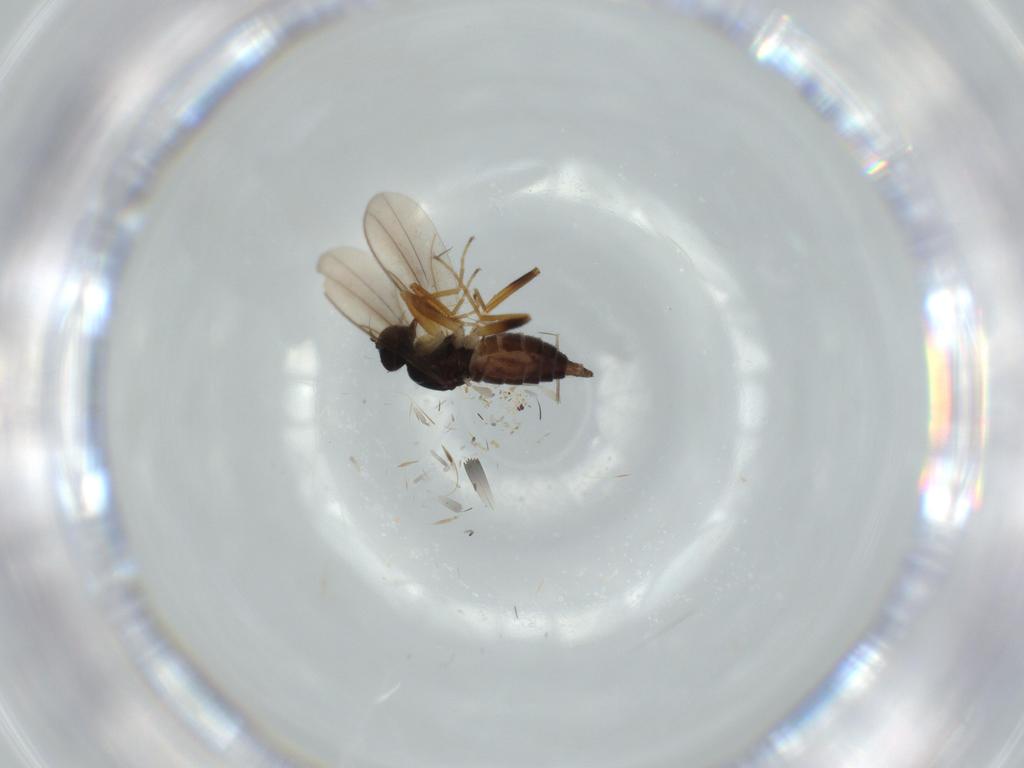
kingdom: Animalia
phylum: Arthropoda
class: Insecta
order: Diptera
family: Hybotidae
